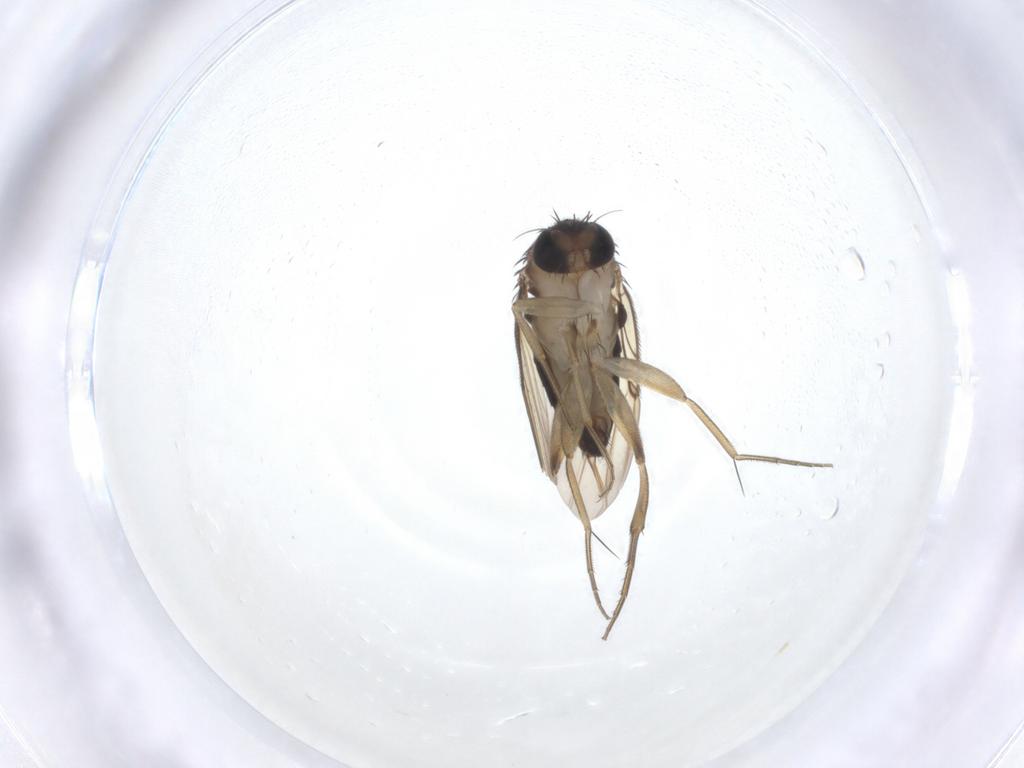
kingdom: Animalia
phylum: Arthropoda
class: Insecta
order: Diptera
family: Phoridae
